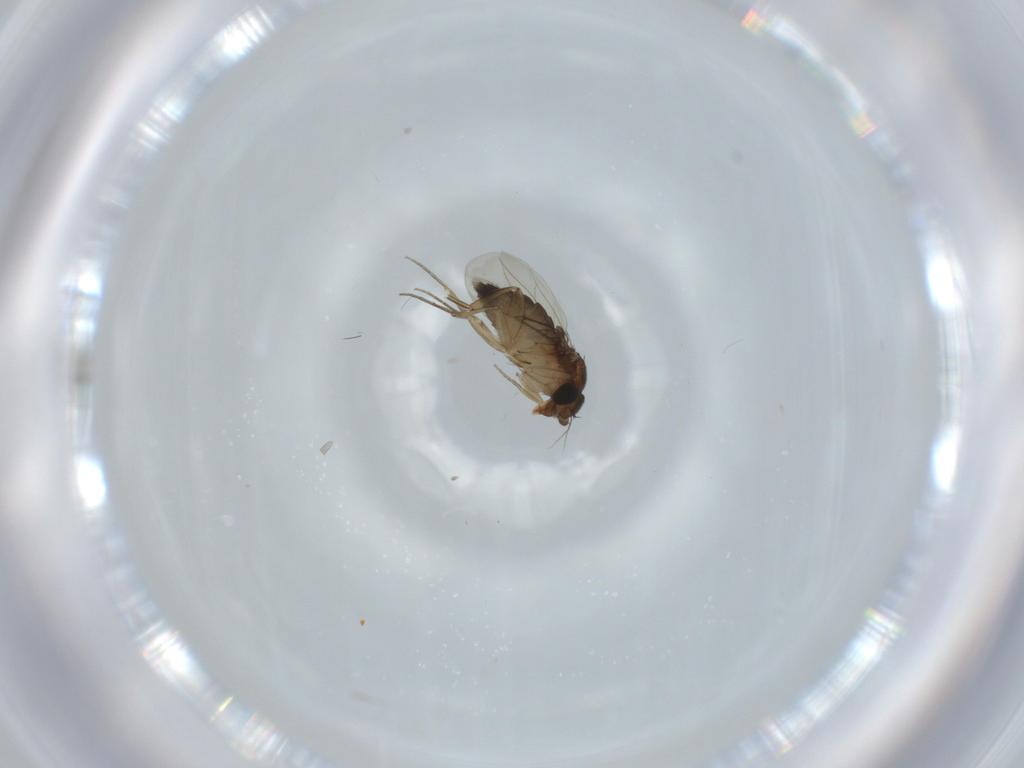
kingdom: Animalia
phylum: Arthropoda
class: Insecta
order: Diptera
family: Phoridae
